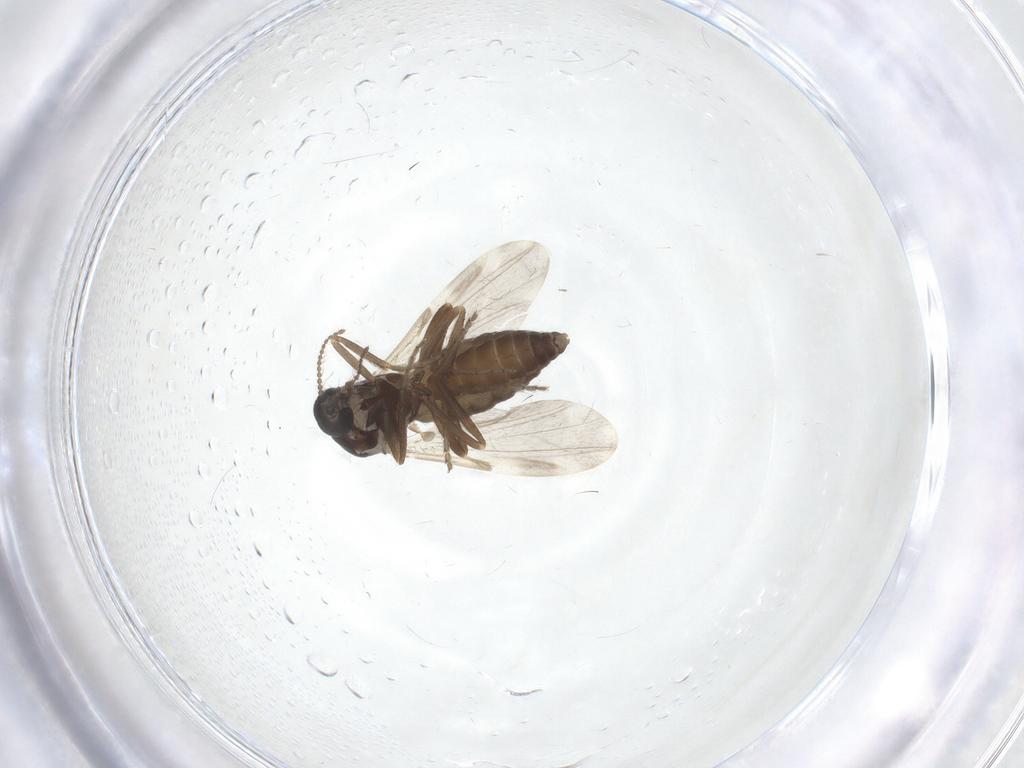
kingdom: Animalia
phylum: Arthropoda
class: Insecta
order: Diptera
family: Ceratopogonidae
